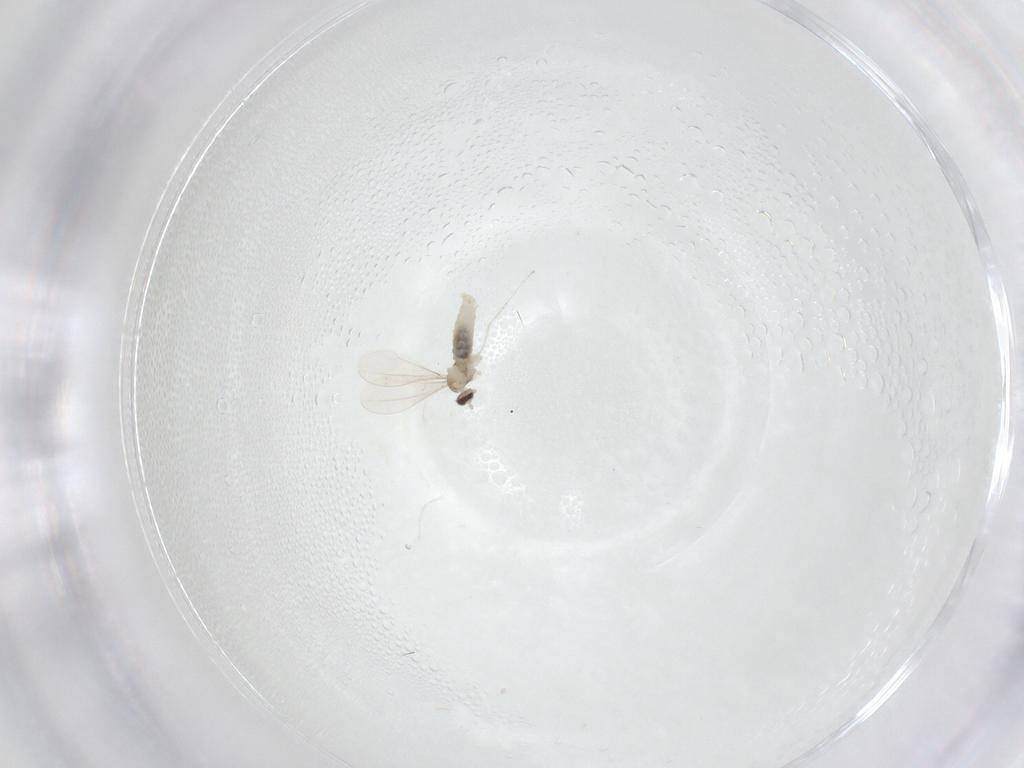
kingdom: Animalia
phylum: Arthropoda
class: Insecta
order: Diptera
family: Cecidomyiidae
